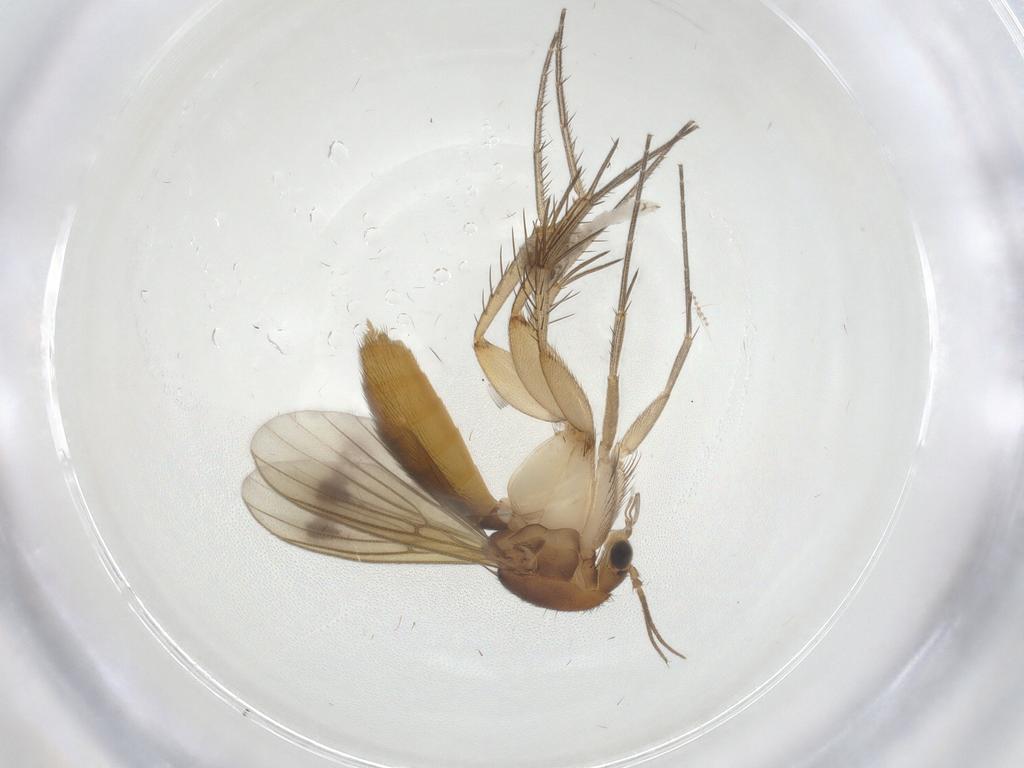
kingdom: Animalia
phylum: Arthropoda
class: Insecta
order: Diptera
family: Mycetophilidae
